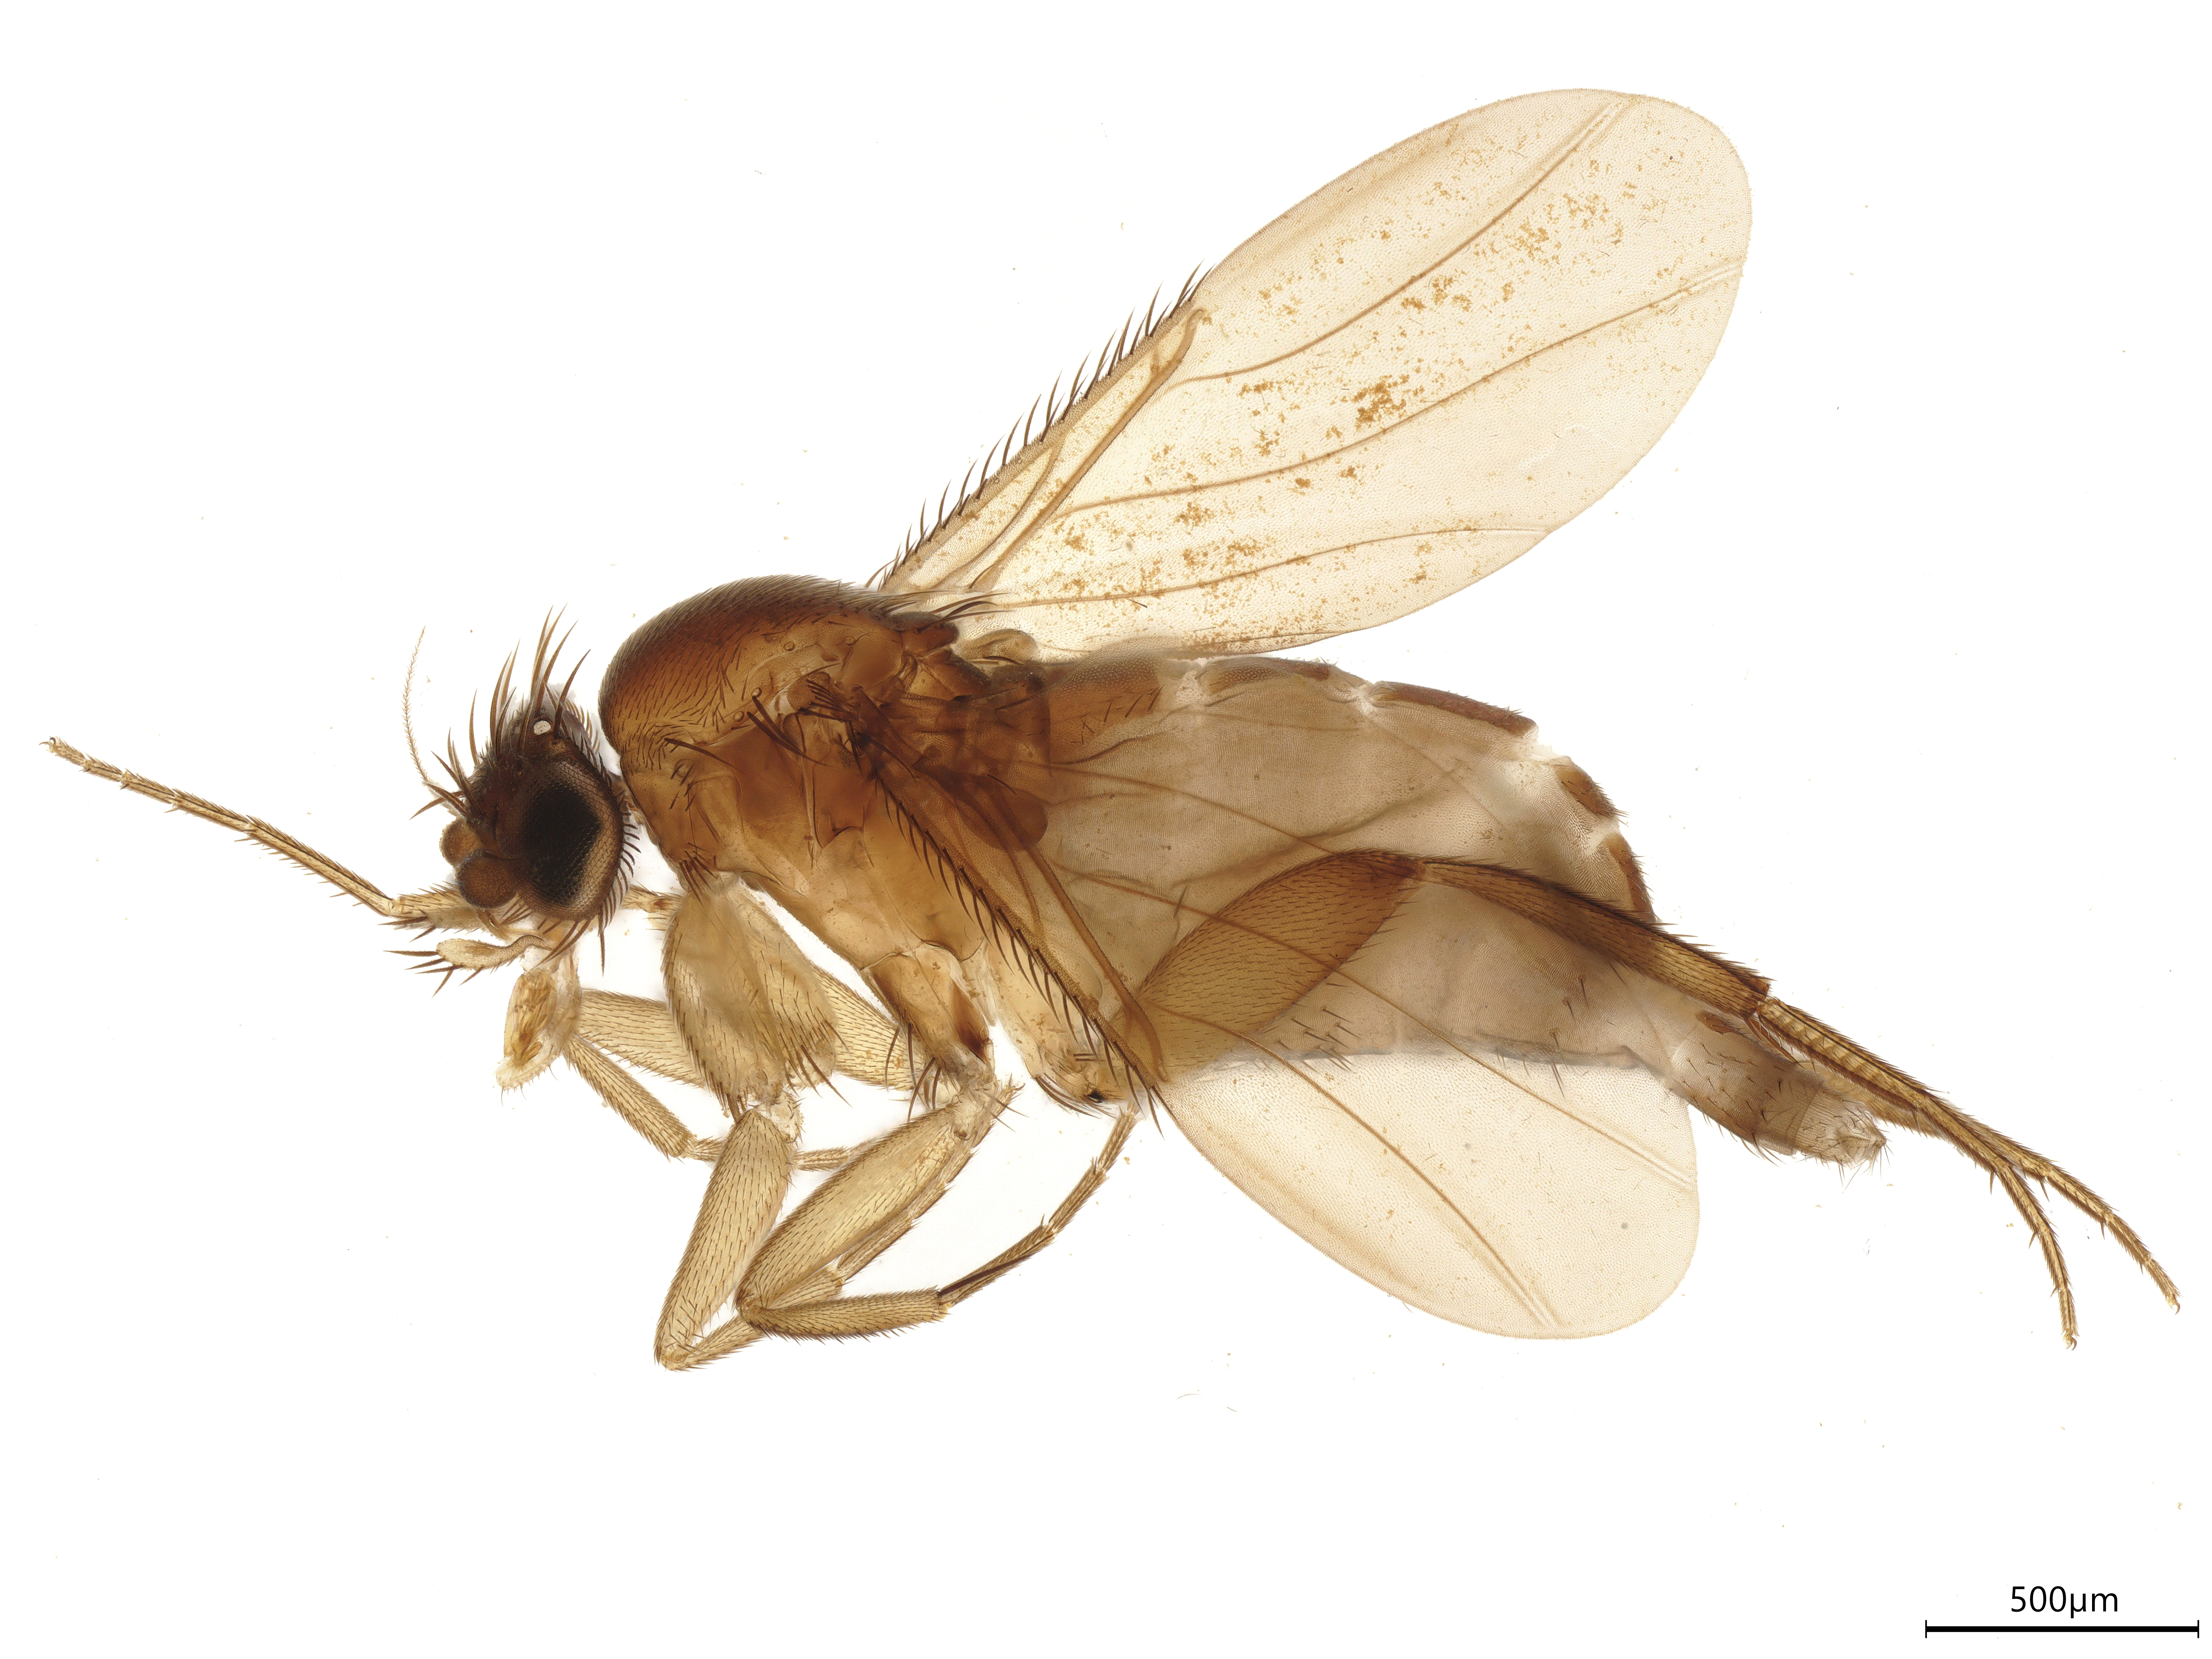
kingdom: Animalia
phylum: Arthropoda
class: Insecta
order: Diptera
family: Phoridae
